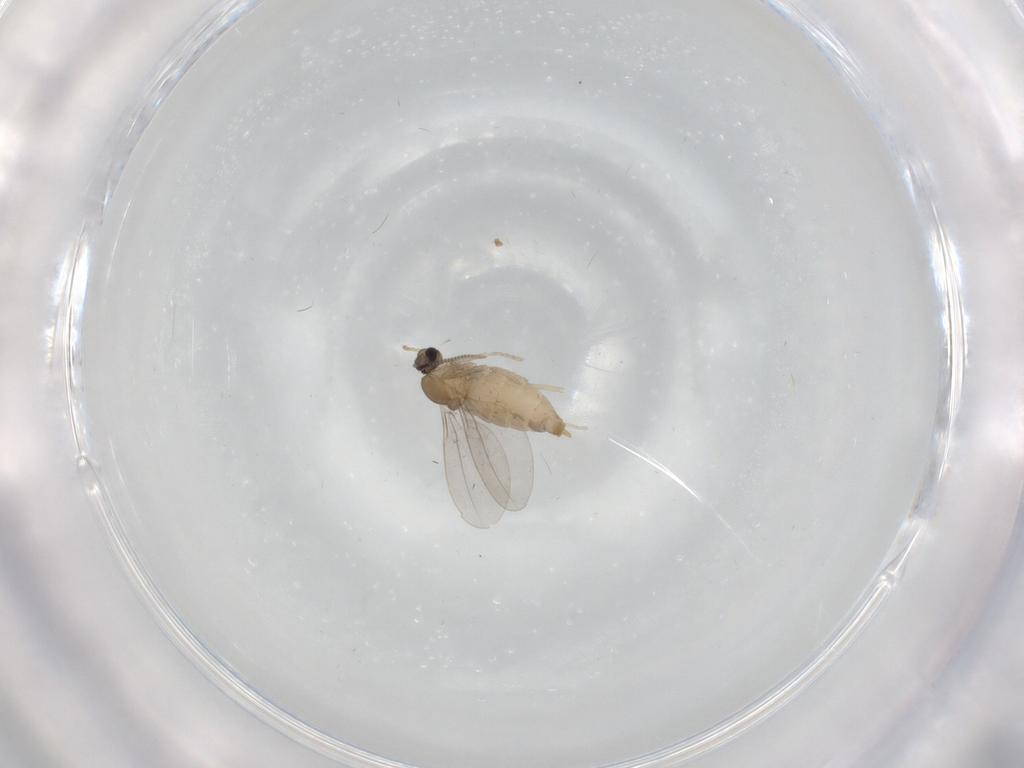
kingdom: Animalia
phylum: Arthropoda
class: Insecta
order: Diptera
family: Cecidomyiidae
